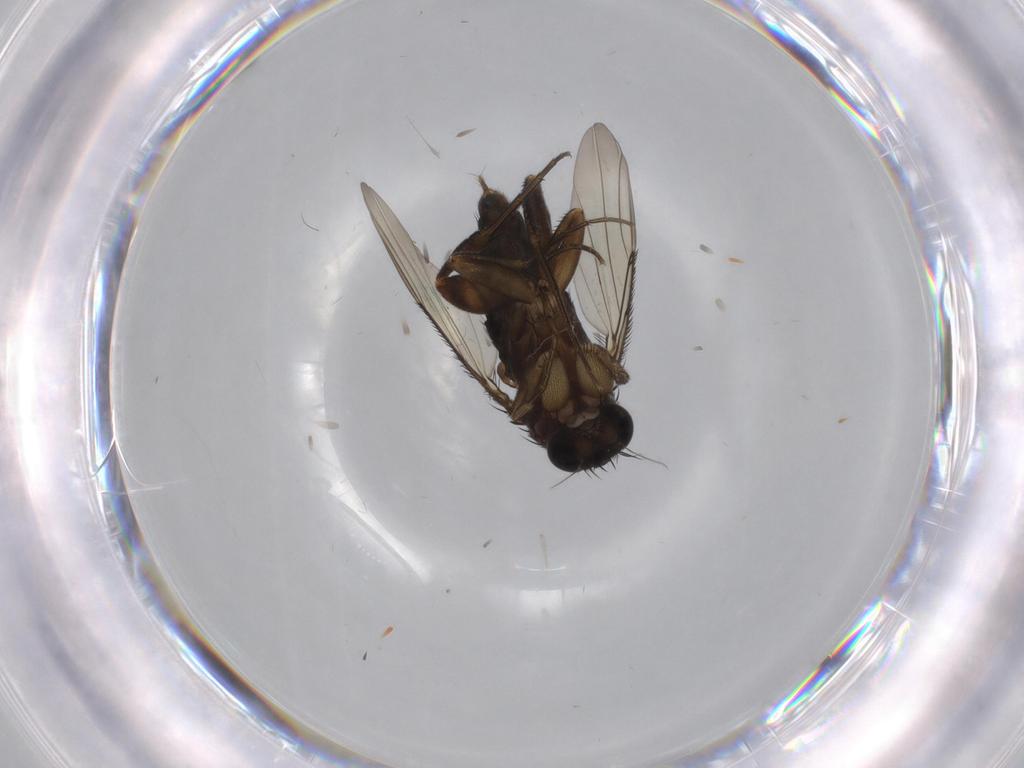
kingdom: Animalia
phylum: Arthropoda
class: Insecta
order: Diptera
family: Phoridae
